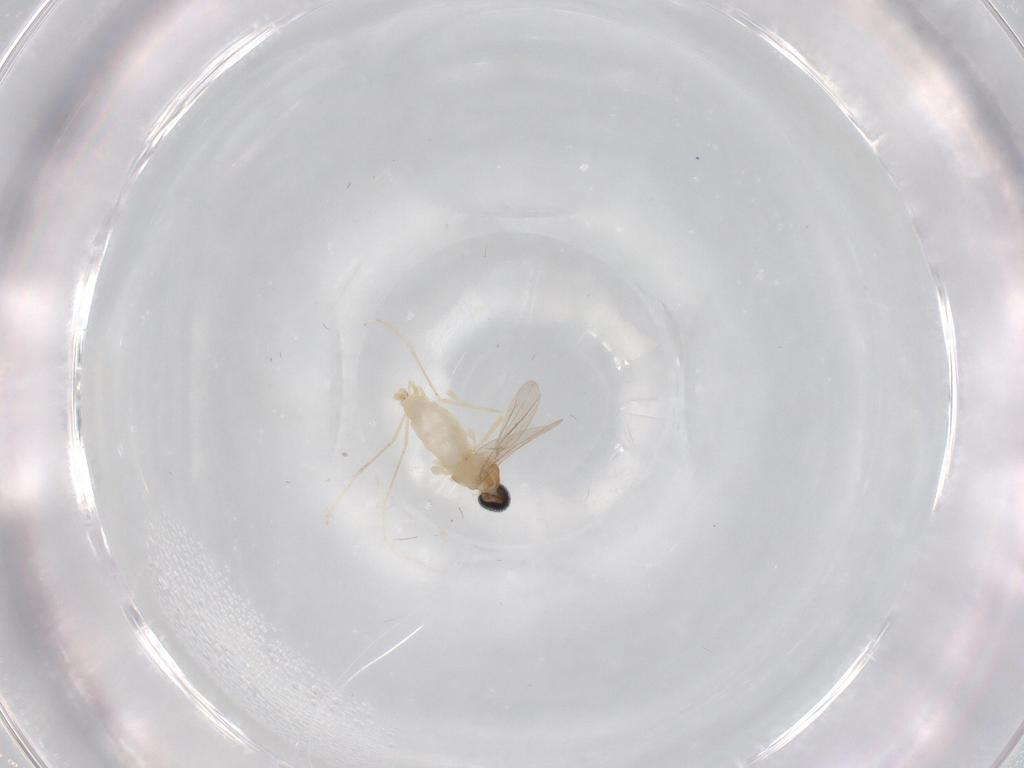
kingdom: Animalia
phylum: Arthropoda
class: Insecta
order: Diptera
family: Cecidomyiidae
